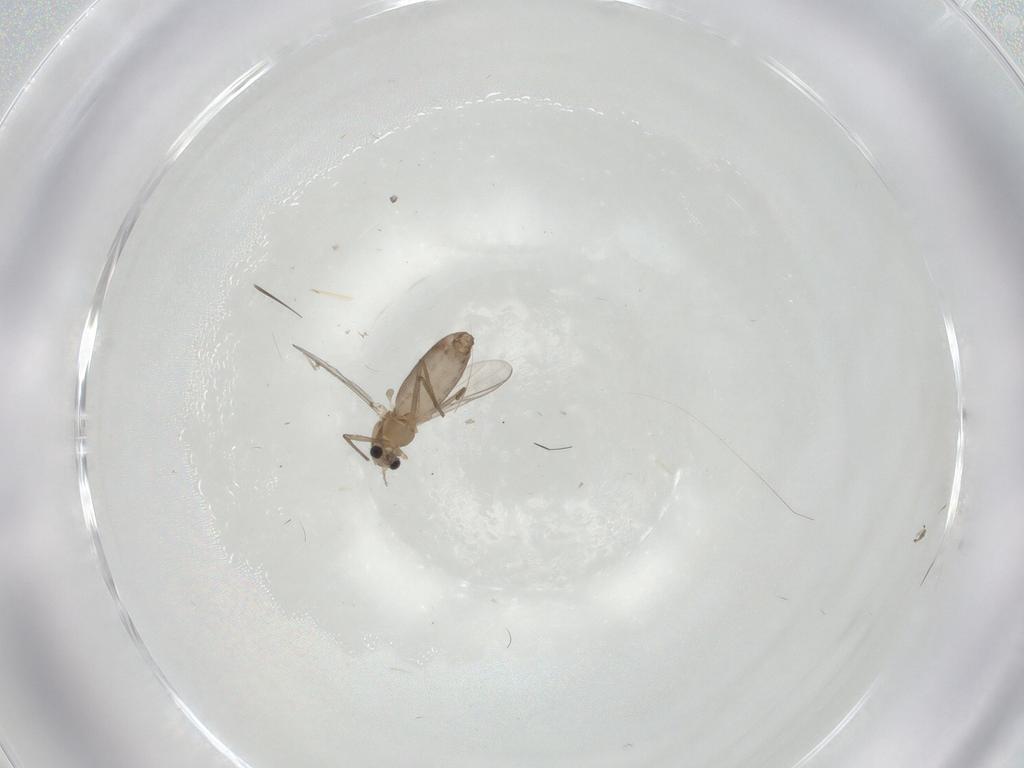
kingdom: Animalia
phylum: Arthropoda
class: Insecta
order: Diptera
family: Chironomidae
